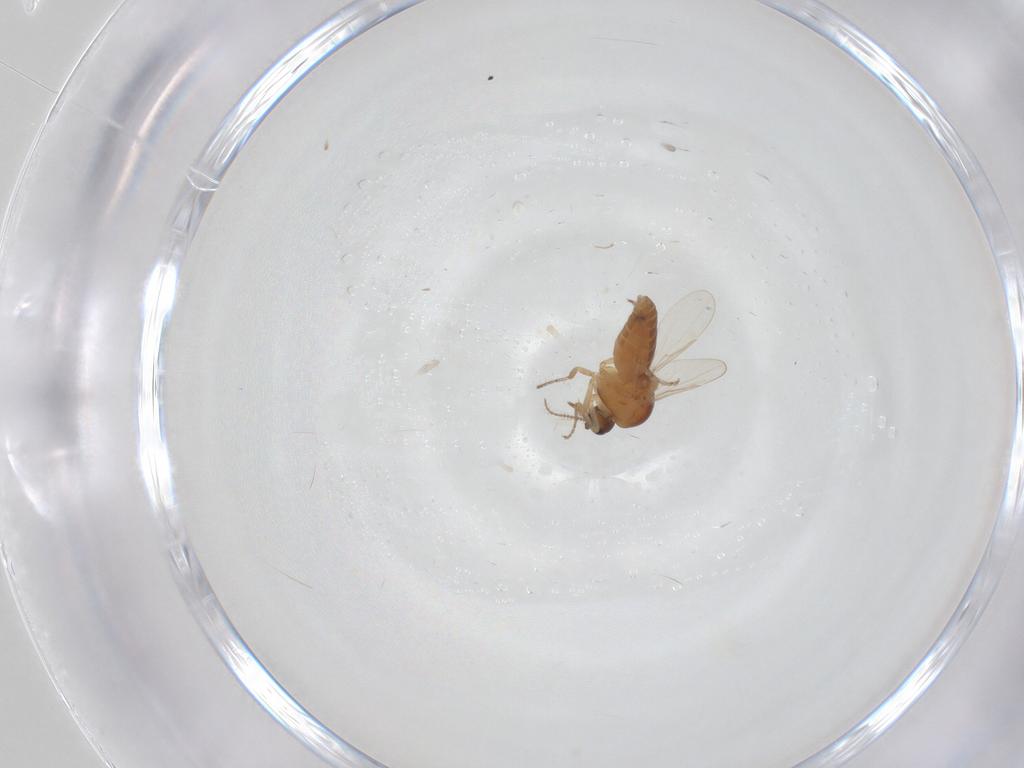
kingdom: Animalia
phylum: Arthropoda
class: Insecta
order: Diptera
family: Ceratopogonidae
